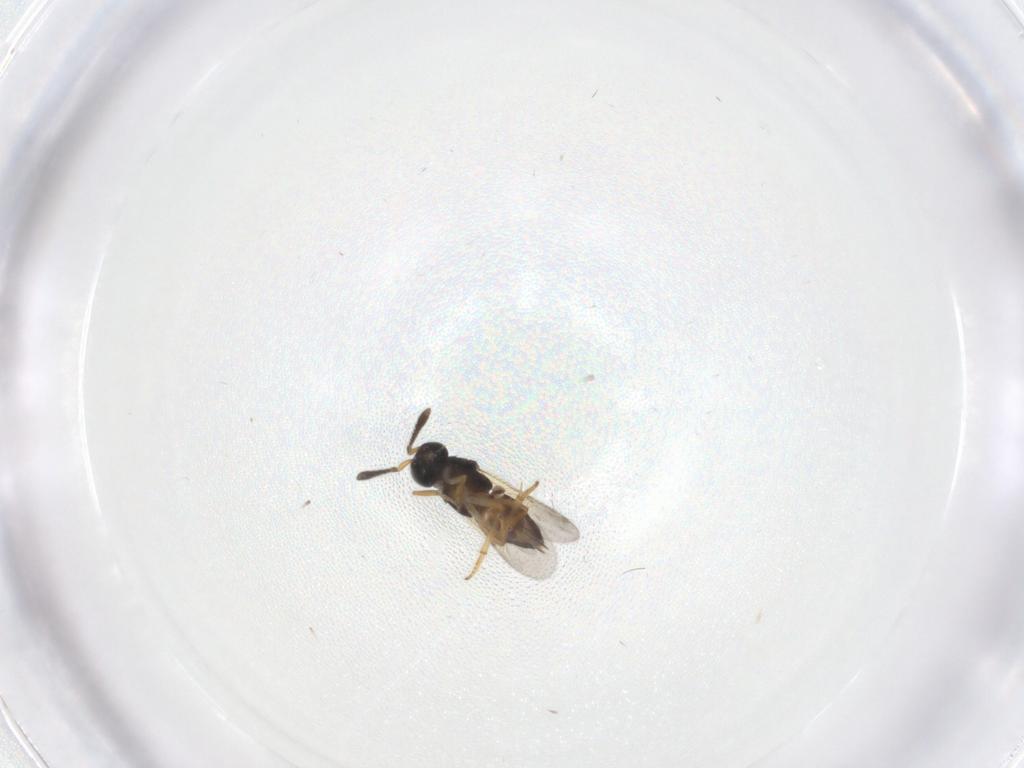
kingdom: Animalia
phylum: Arthropoda
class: Insecta
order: Hymenoptera
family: Encyrtidae
